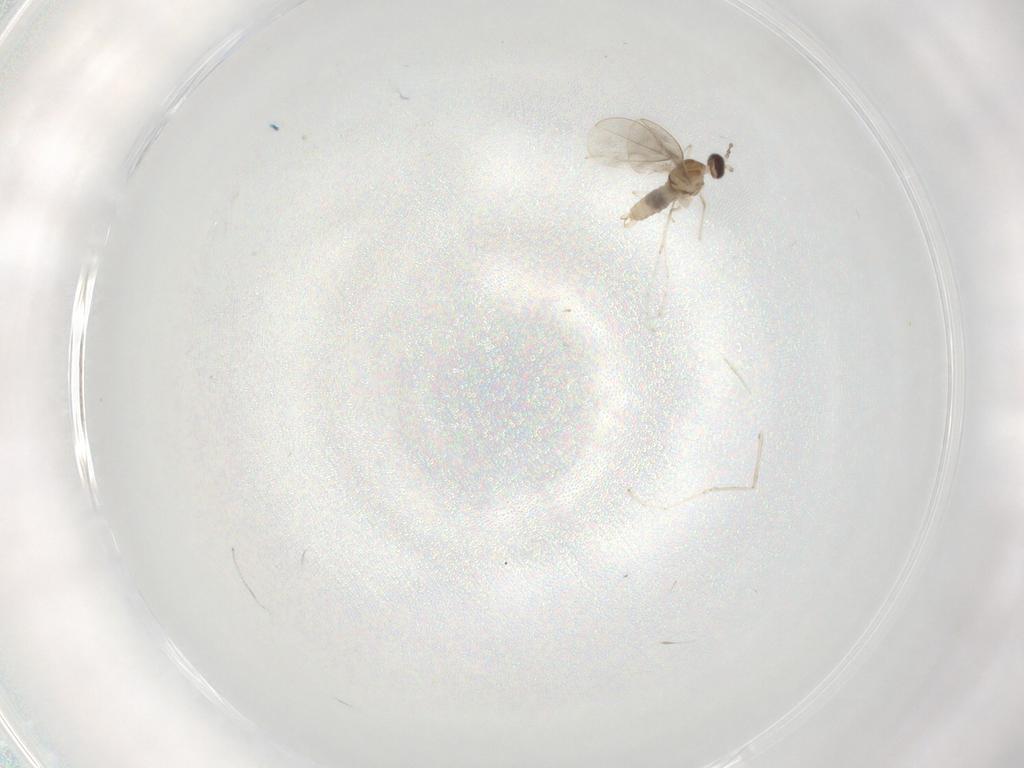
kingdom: Animalia
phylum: Arthropoda
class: Insecta
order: Diptera
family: Cecidomyiidae
